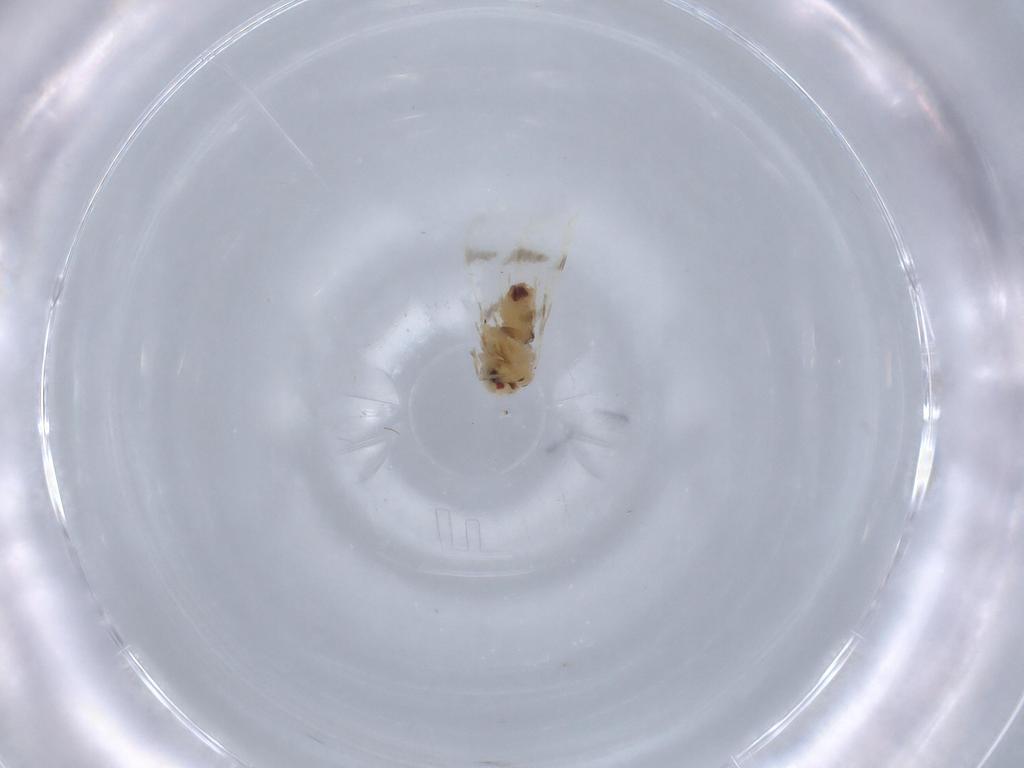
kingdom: Animalia
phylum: Arthropoda
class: Insecta
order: Hemiptera
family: Aleyrodidae
